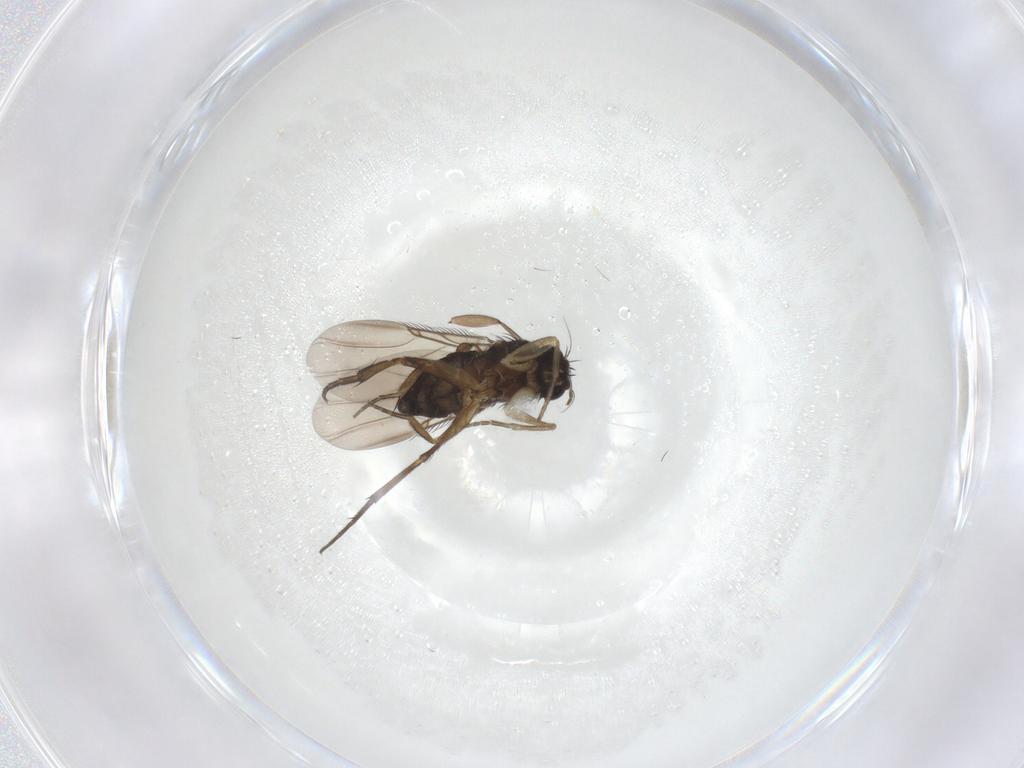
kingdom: Animalia
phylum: Arthropoda
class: Insecta
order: Diptera
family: Phoridae
